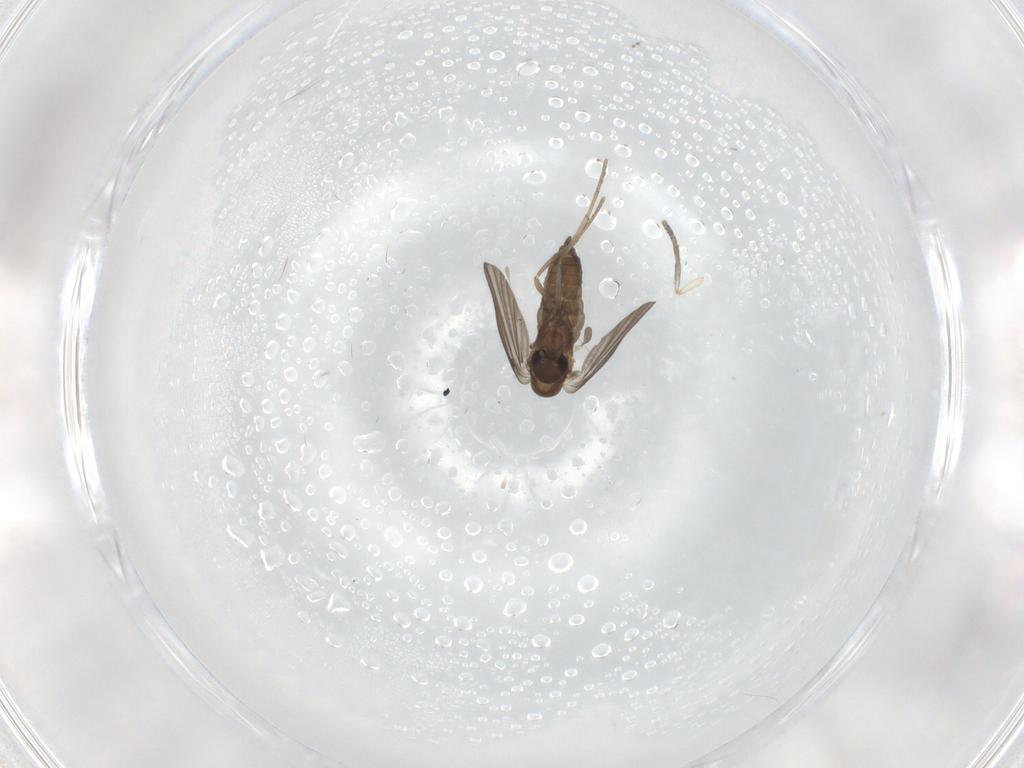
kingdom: Animalia
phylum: Arthropoda
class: Insecta
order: Diptera
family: Cecidomyiidae
